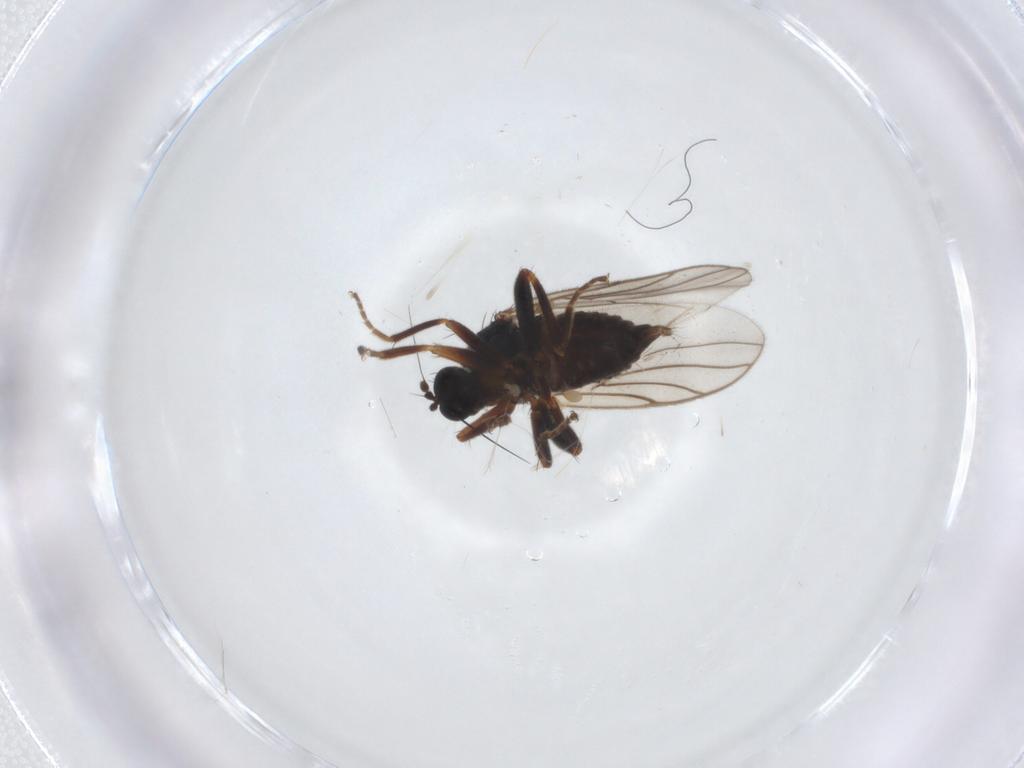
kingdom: Animalia
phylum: Arthropoda
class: Insecta
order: Diptera
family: Hybotidae
